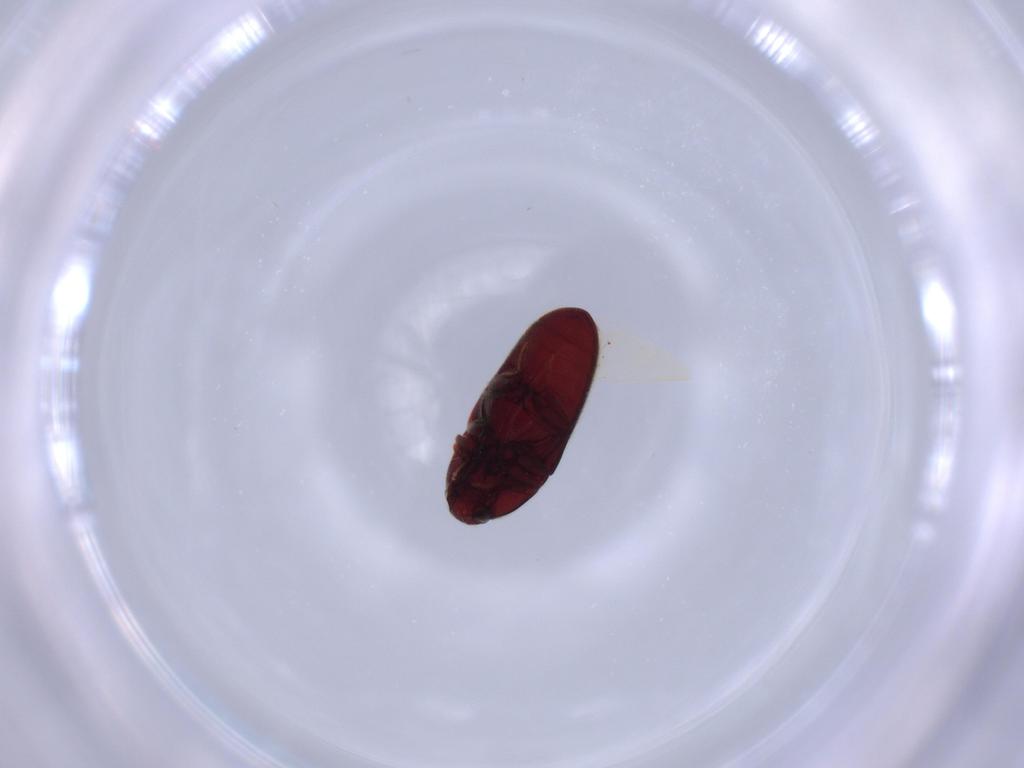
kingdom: Animalia
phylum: Arthropoda
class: Insecta
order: Coleoptera
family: Throscidae
